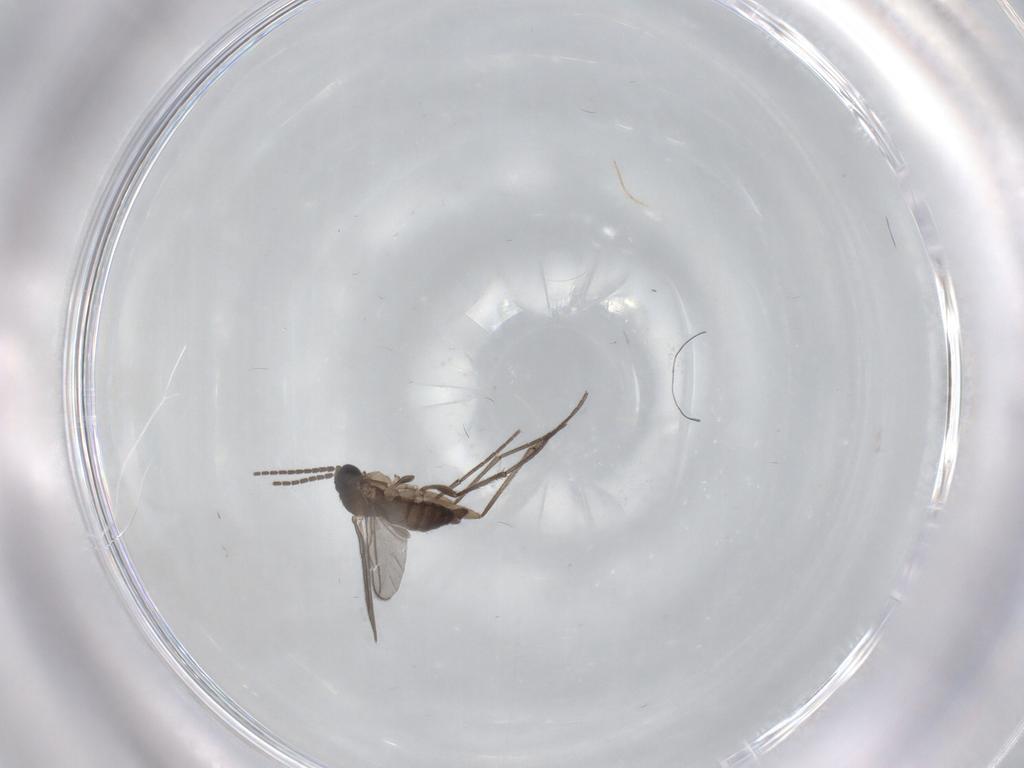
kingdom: Animalia
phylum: Arthropoda
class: Insecta
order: Diptera
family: Sciaridae
